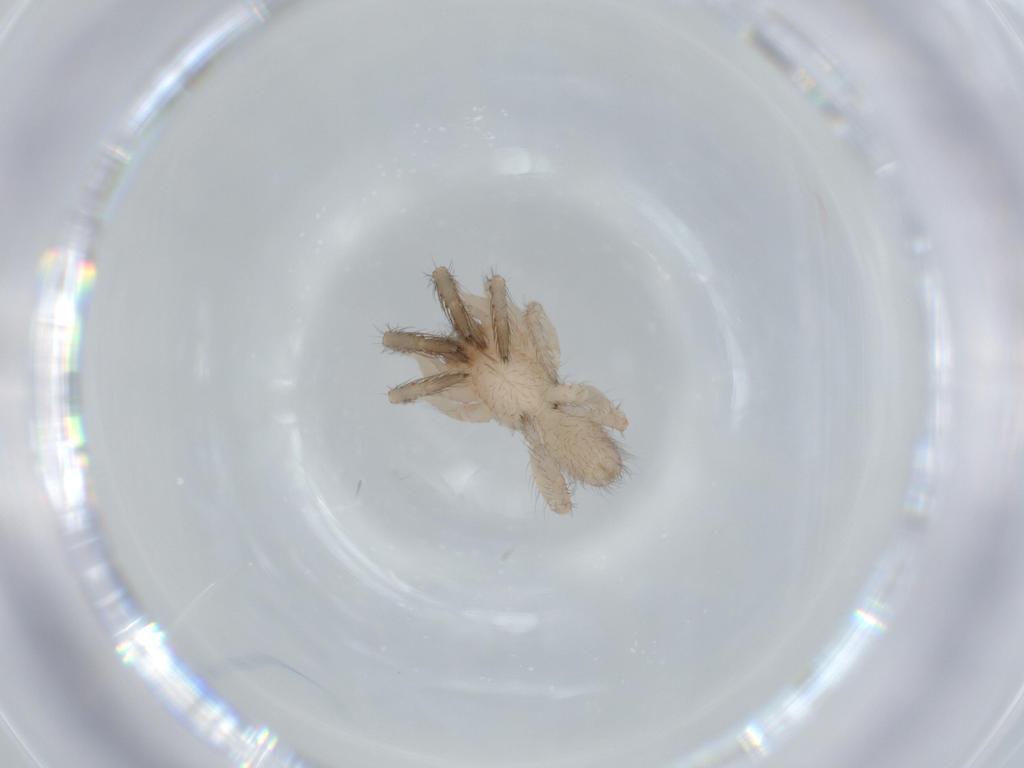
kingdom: Animalia
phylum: Arthropoda
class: Arachnida
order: Araneae
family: Segestriidae
